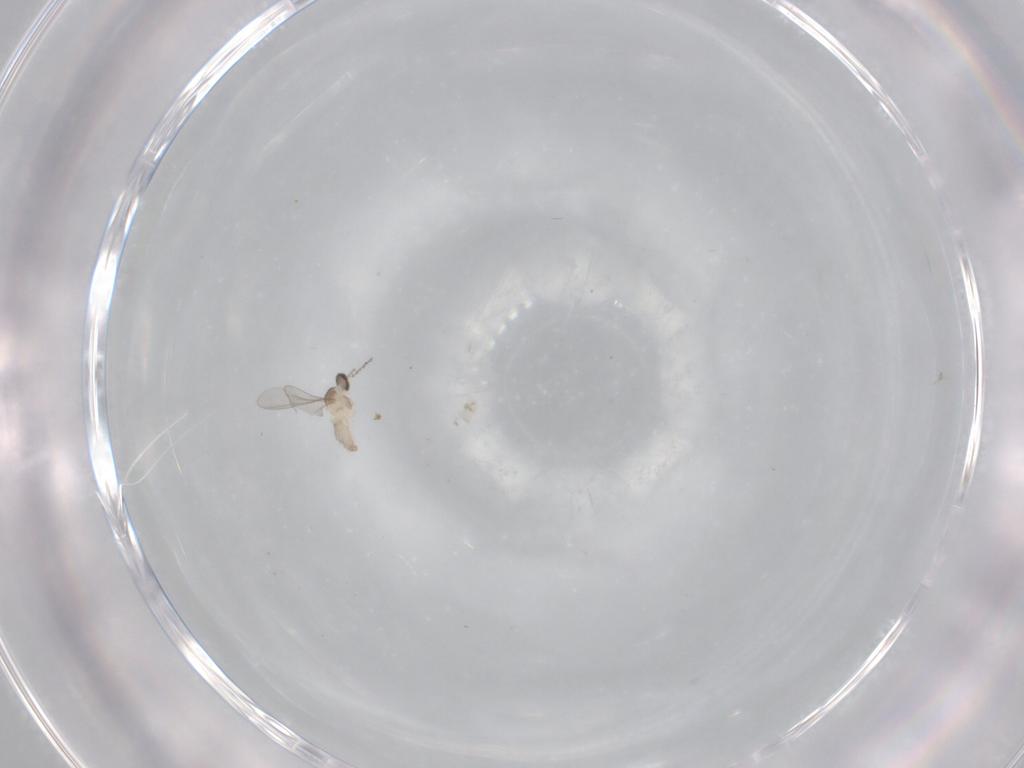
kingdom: Animalia
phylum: Arthropoda
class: Insecta
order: Diptera
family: Cecidomyiidae
